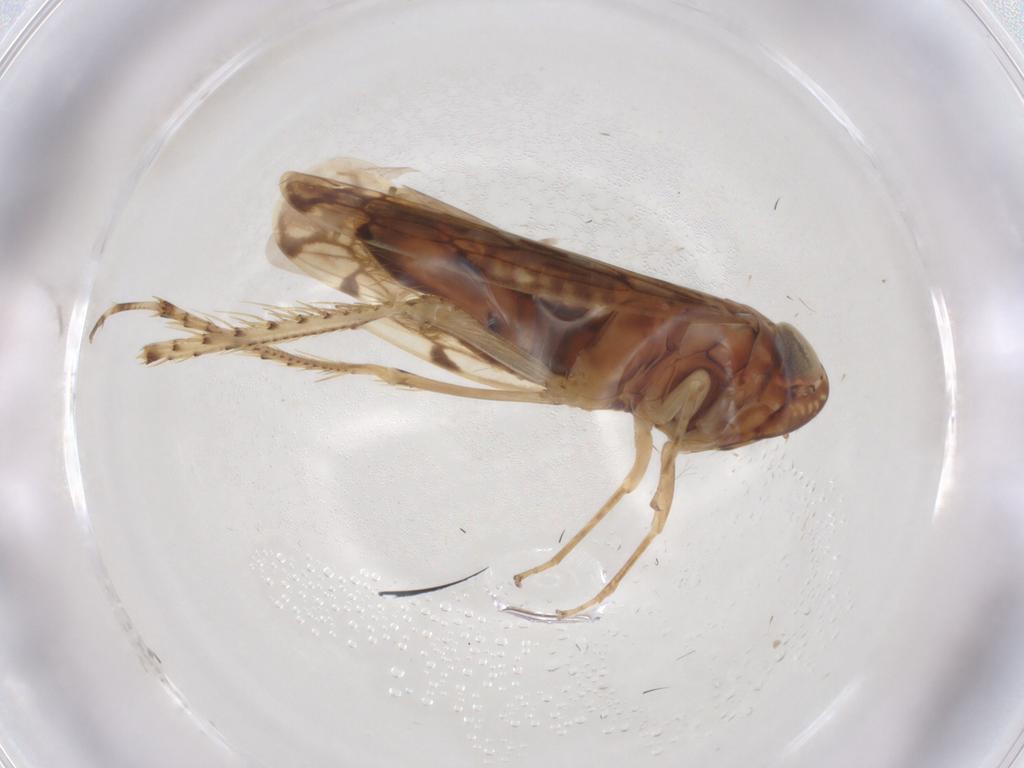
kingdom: Animalia
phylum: Arthropoda
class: Insecta
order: Hemiptera
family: Cicadellidae
